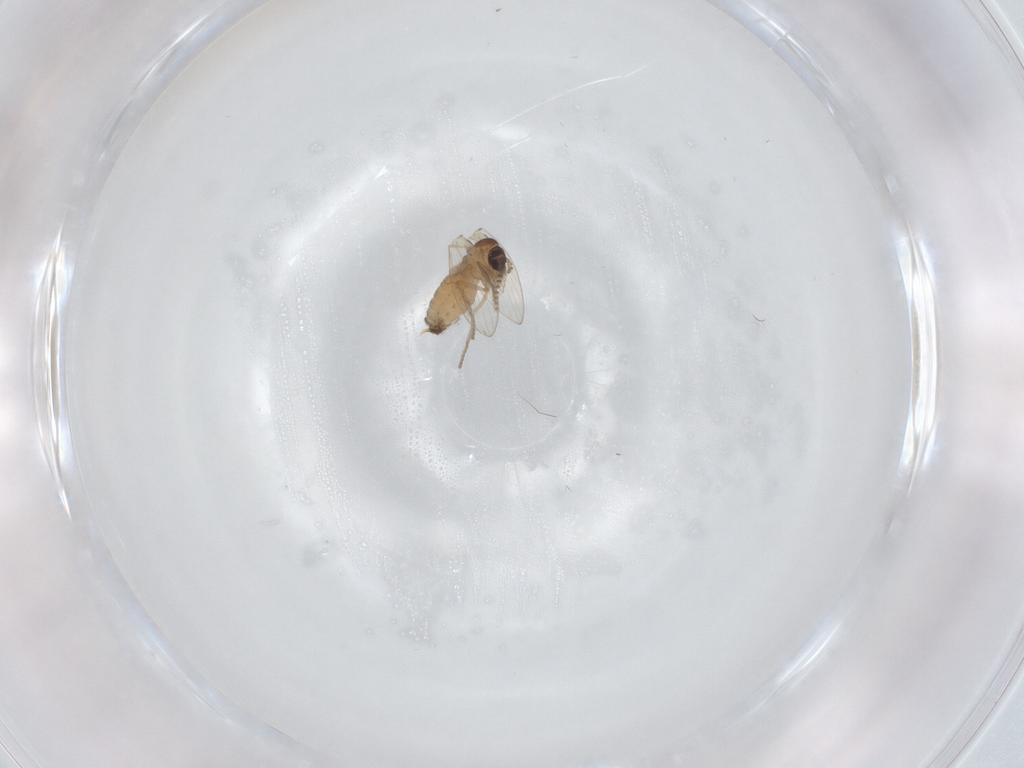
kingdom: Animalia
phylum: Arthropoda
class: Insecta
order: Diptera
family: Psychodidae
